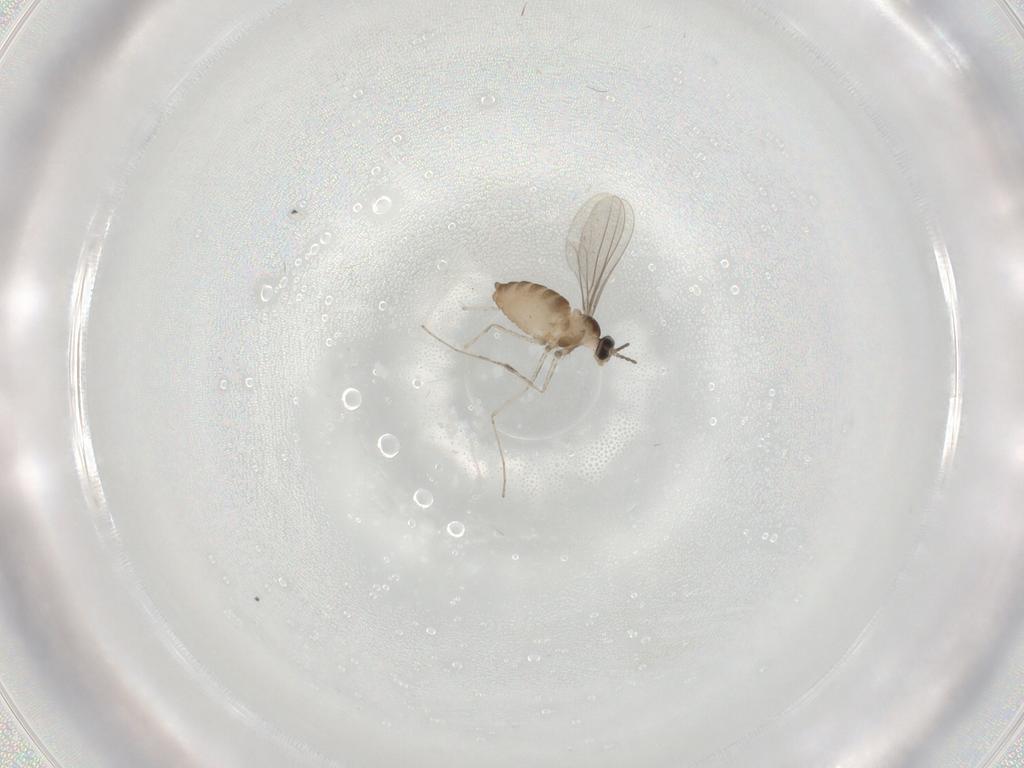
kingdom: Animalia
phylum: Arthropoda
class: Insecta
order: Diptera
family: Cecidomyiidae
